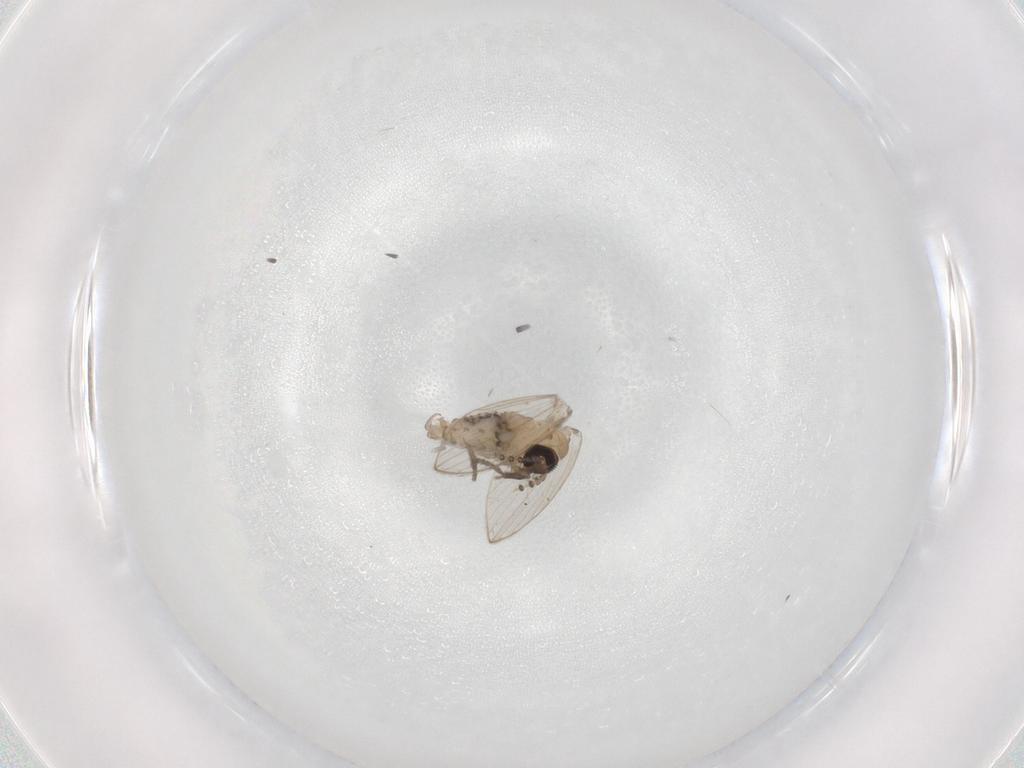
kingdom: Animalia
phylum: Arthropoda
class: Insecta
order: Diptera
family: Psychodidae
